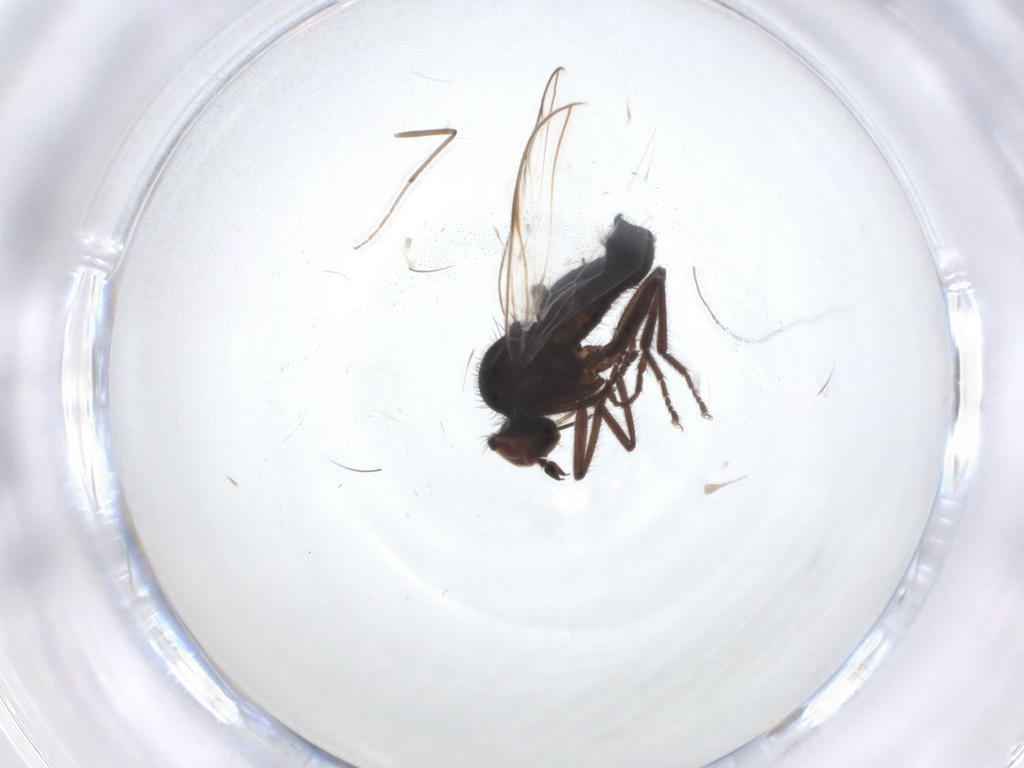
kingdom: Animalia
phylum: Arthropoda
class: Insecta
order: Diptera
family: Empididae
